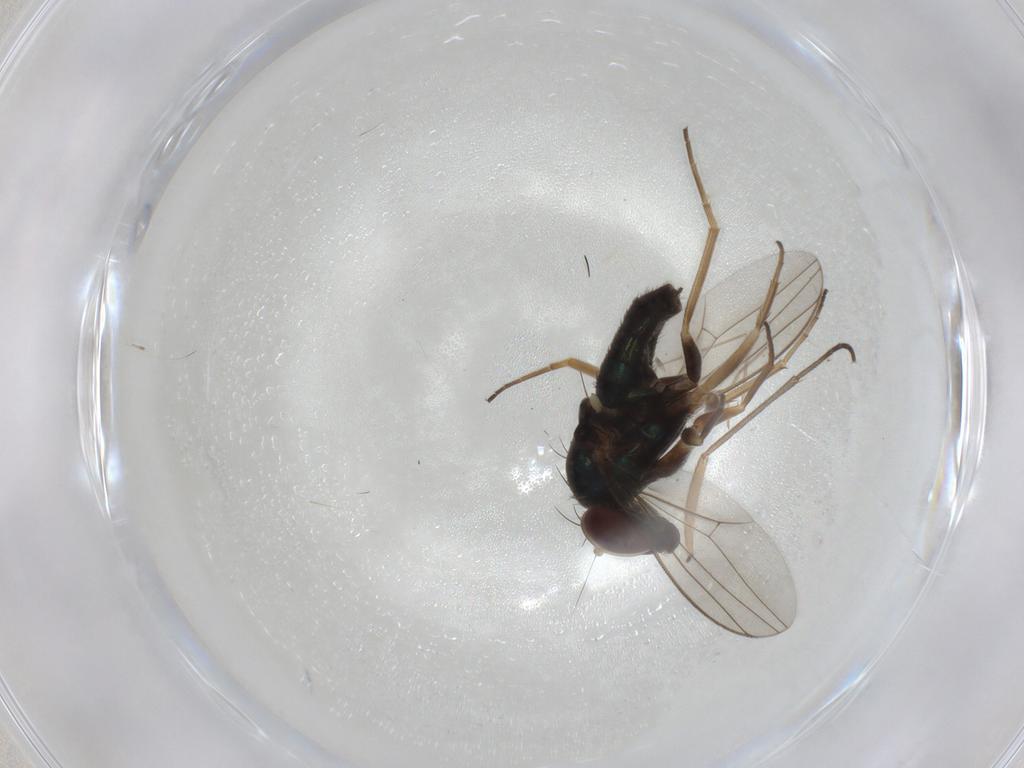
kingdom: Animalia
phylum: Arthropoda
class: Insecta
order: Diptera
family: Dolichopodidae
